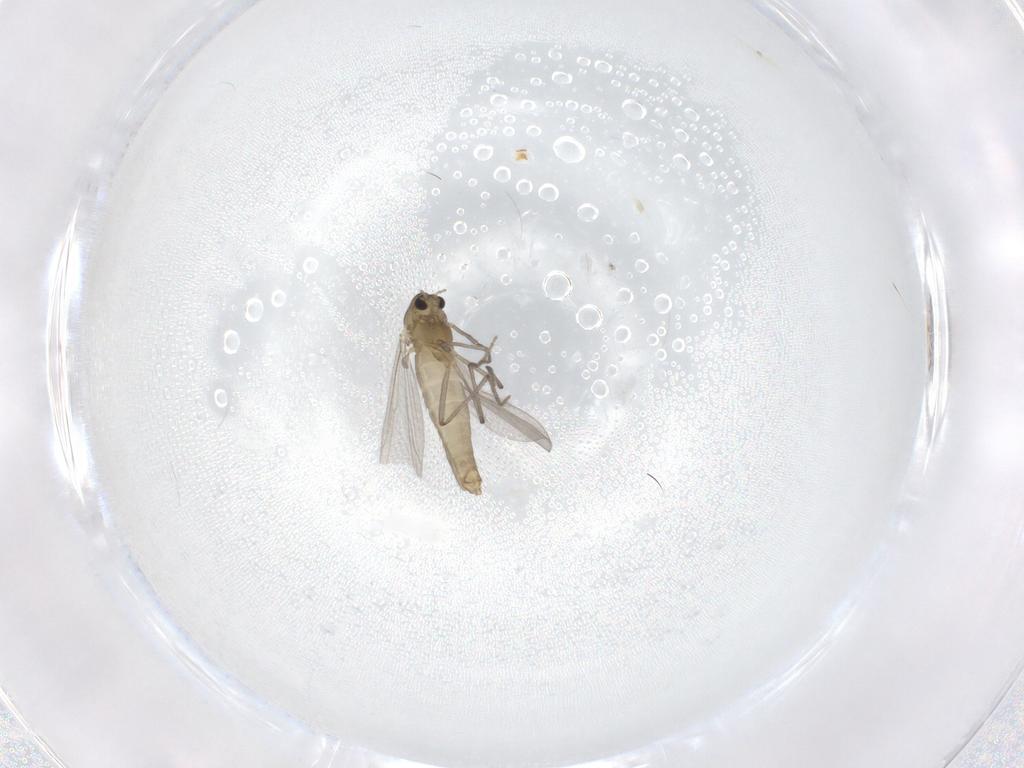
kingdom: Animalia
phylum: Arthropoda
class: Insecta
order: Diptera
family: Chironomidae
